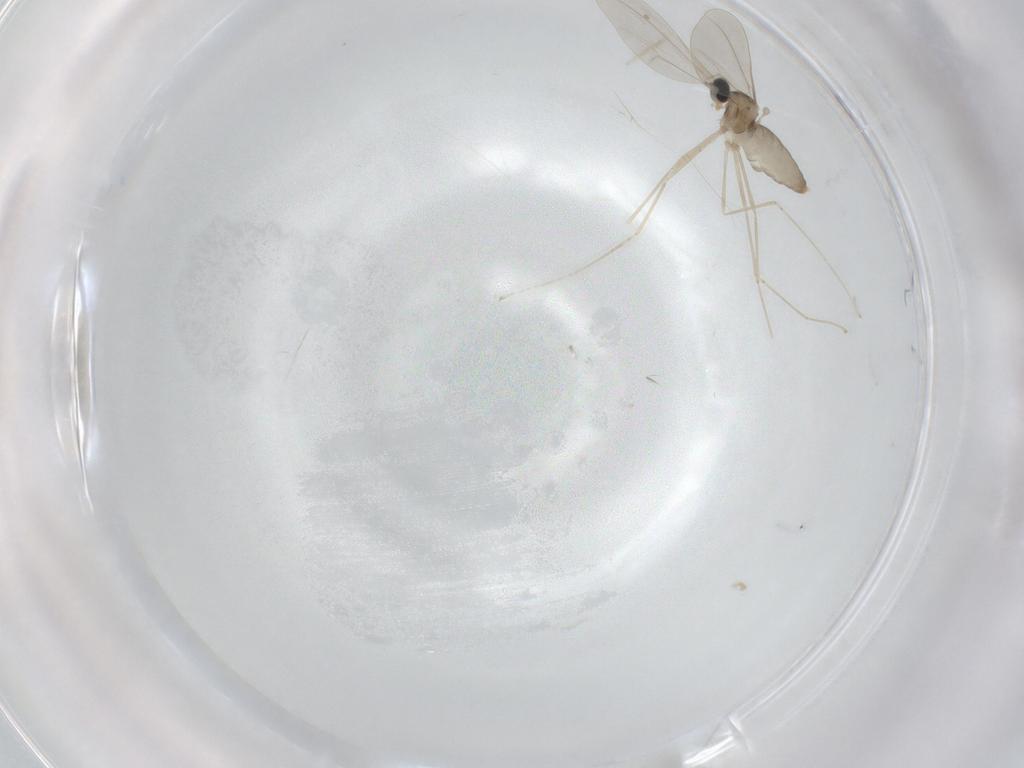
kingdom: Animalia
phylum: Arthropoda
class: Insecta
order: Diptera
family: Cecidomyiidae
